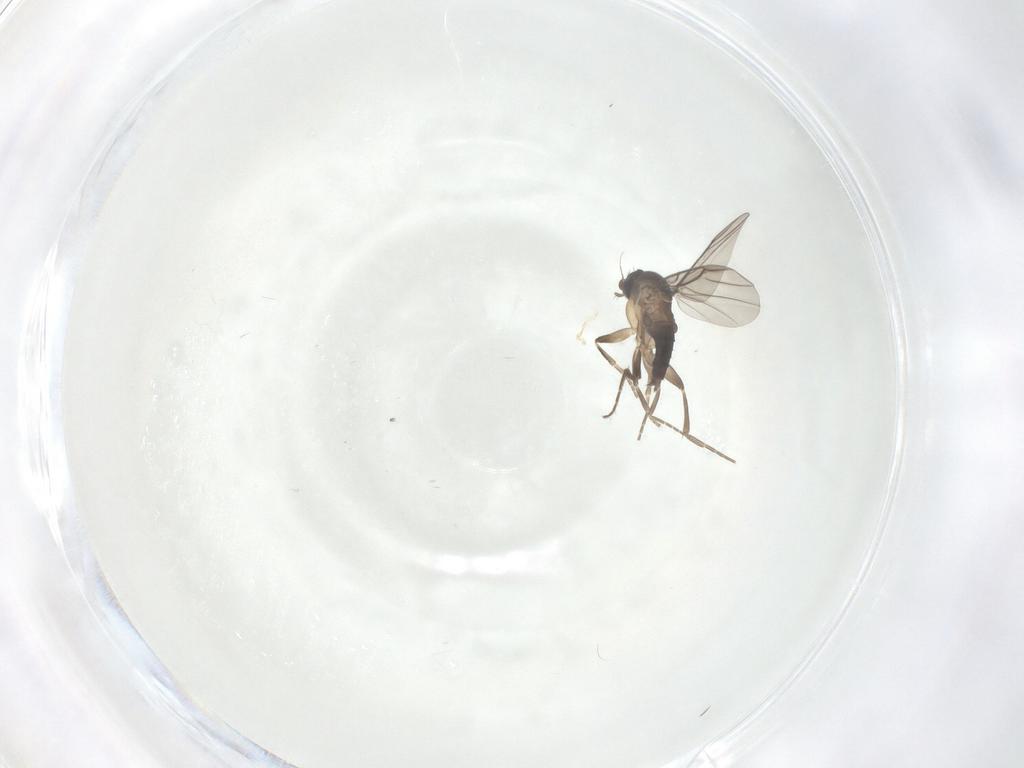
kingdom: Animalia
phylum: Arthropoda
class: Insecta
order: Diptera
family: Phoridae
